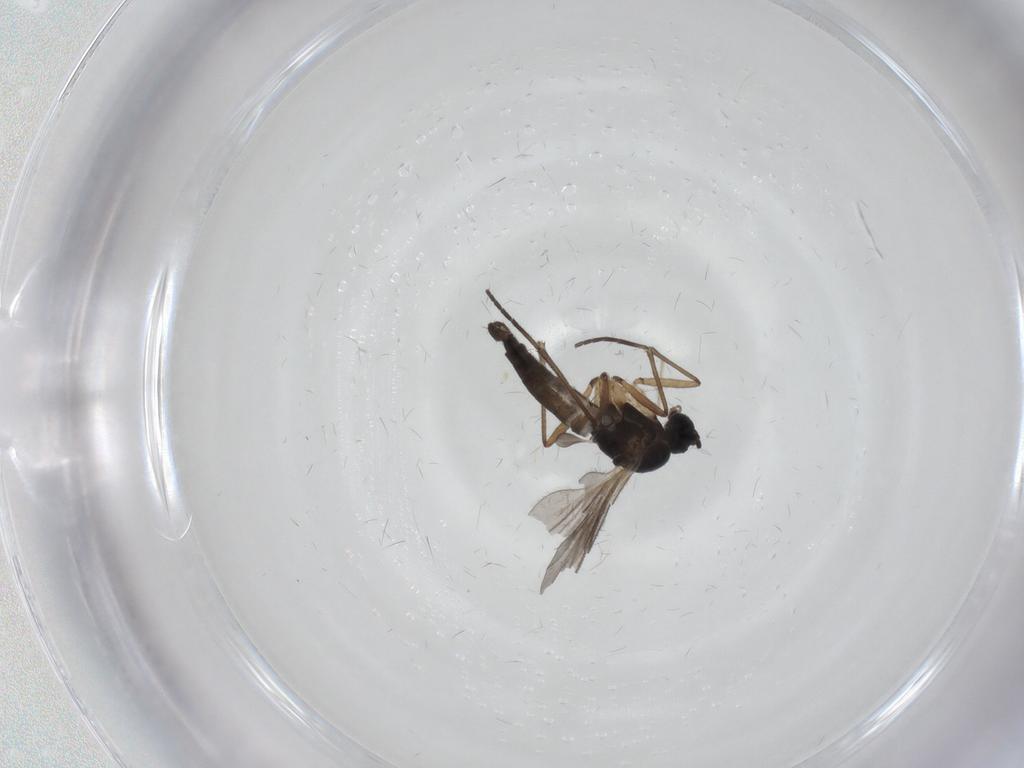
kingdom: Animalia
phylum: Arthropoda
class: Insecta
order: Diptera
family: Sciaridae
